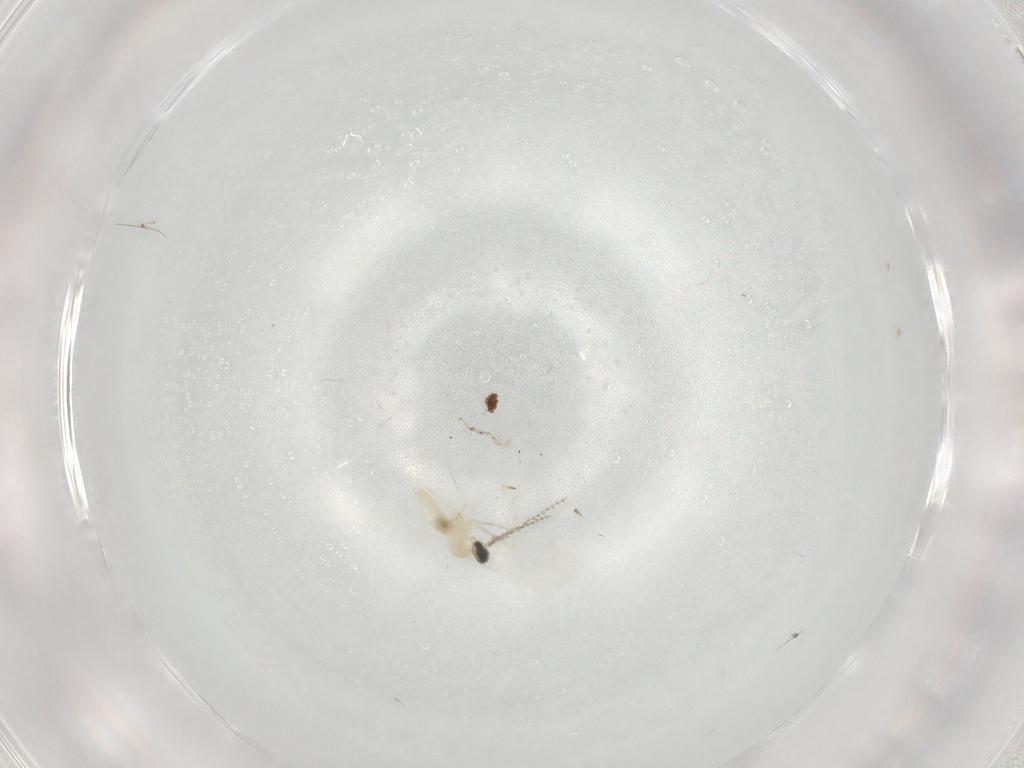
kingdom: Animalia
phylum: Arthropoda
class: Insecta
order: Diptera
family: Cecidomyiidae
